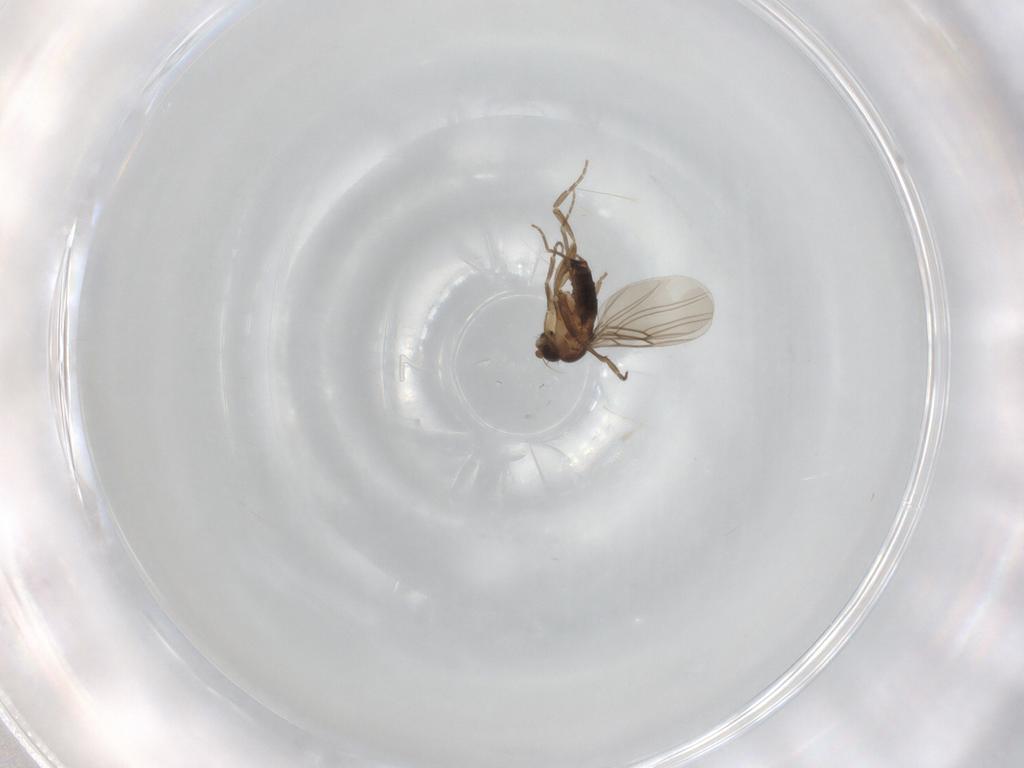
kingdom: Animalia
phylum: Arthropoda
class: Insecta
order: Diptera
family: Phoridae
